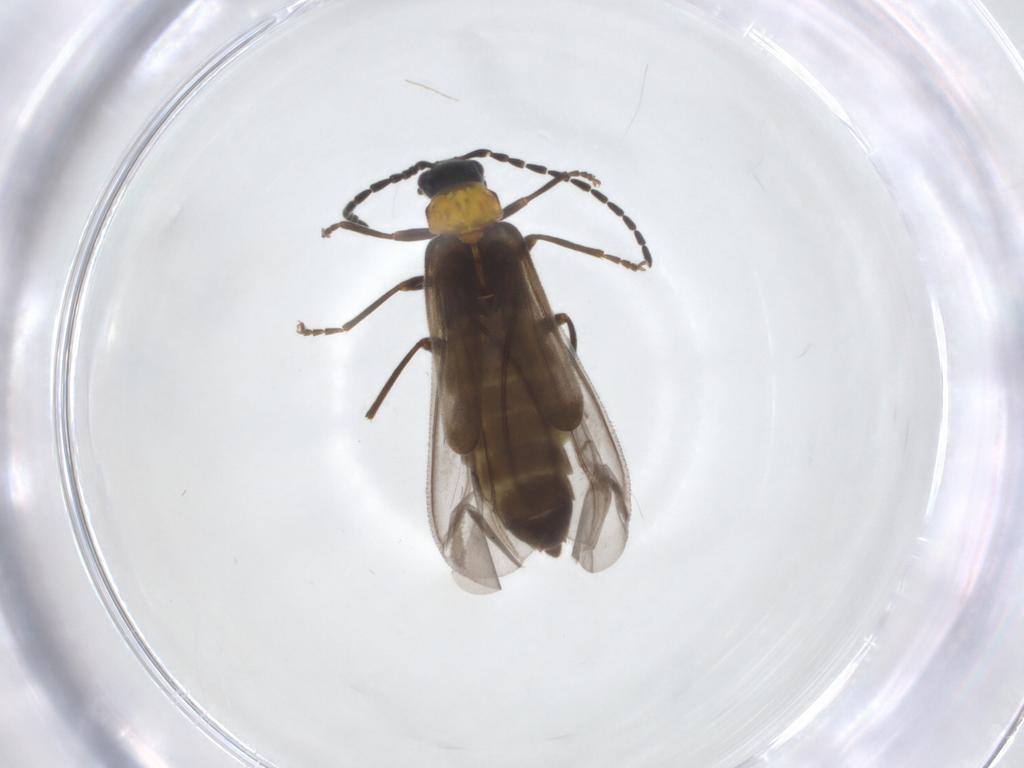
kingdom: Animalia
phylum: Arthropoda
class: Insecta
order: Coleoptera
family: Cantharidae
